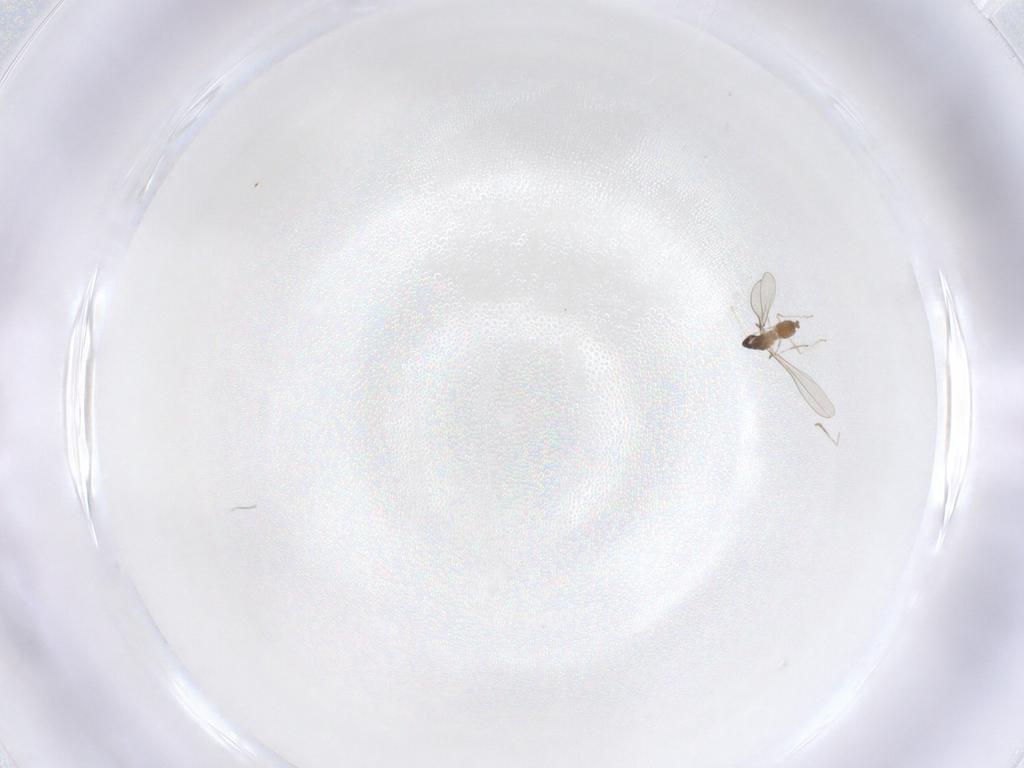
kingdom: Animalia
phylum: Arthropoda
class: Insecta
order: Diptera
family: Cecidomyiidae
